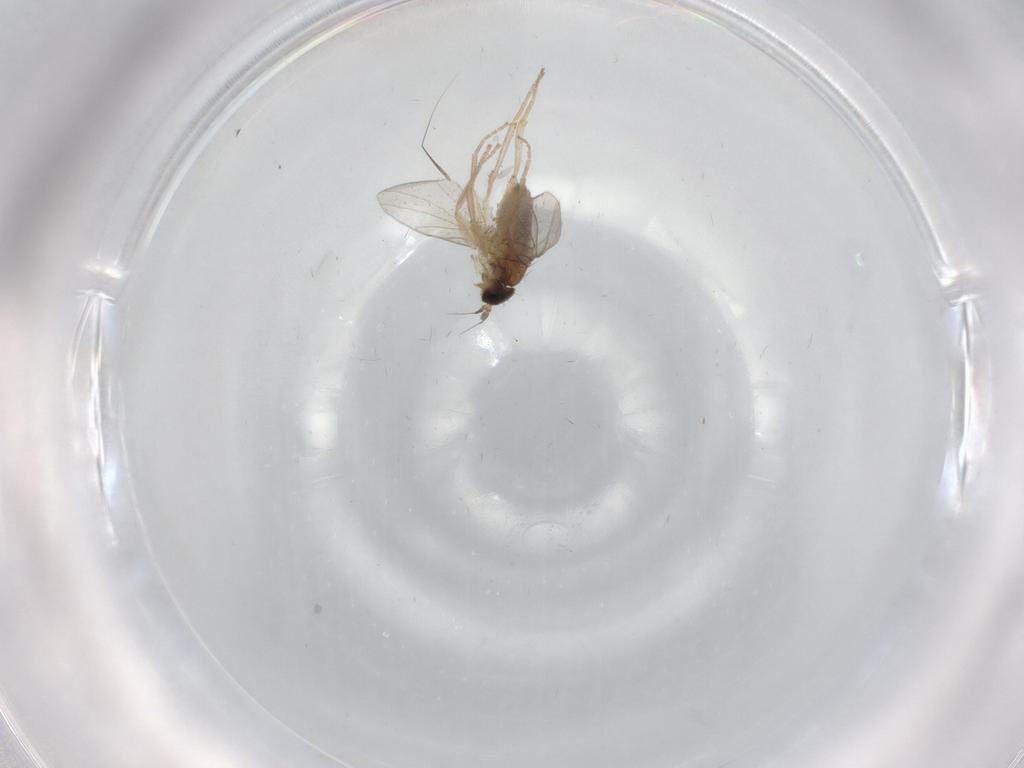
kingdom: Animalia
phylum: Arthropoda
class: Insecta
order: Diptera
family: Hybotidae
